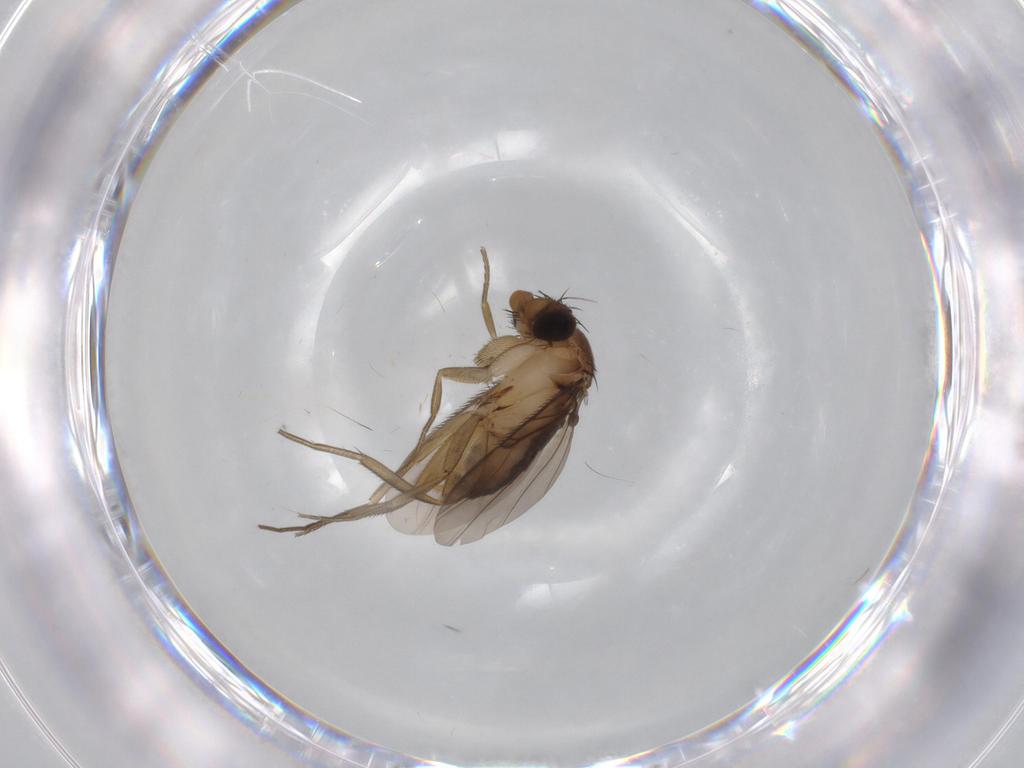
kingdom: Animalia
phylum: Arthropoda
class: Insecta
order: Diptera
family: Phoridae
